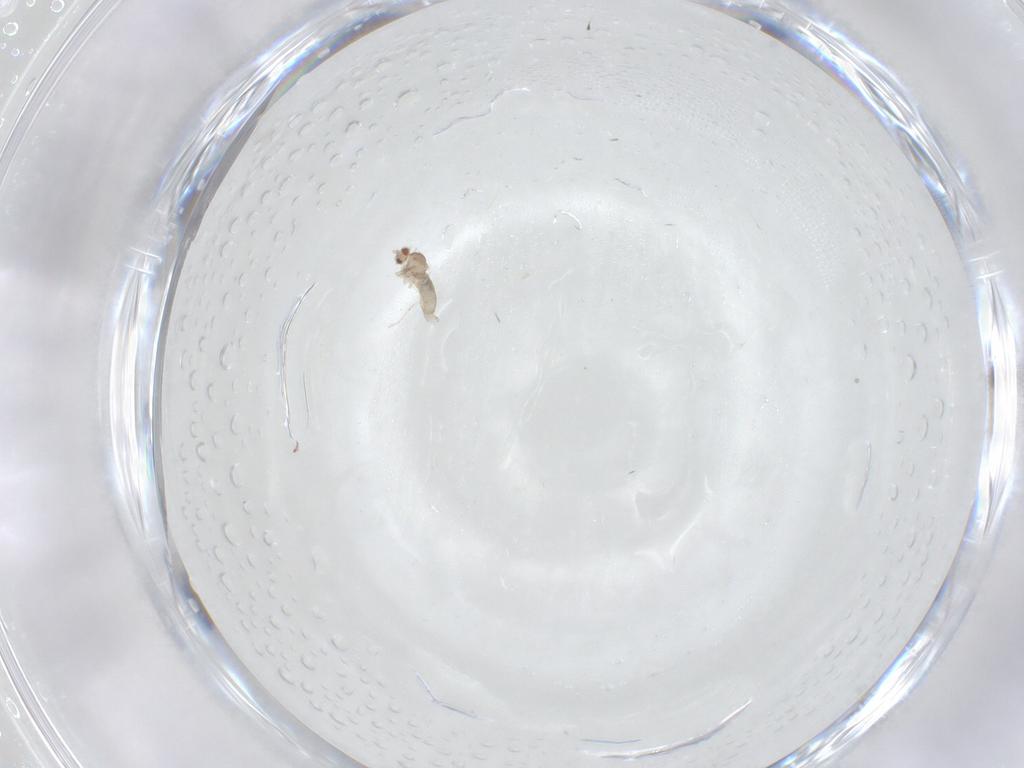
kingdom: Animalia
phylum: Arthropoda
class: Insecta
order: Diptera
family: Cecidomyiidae
